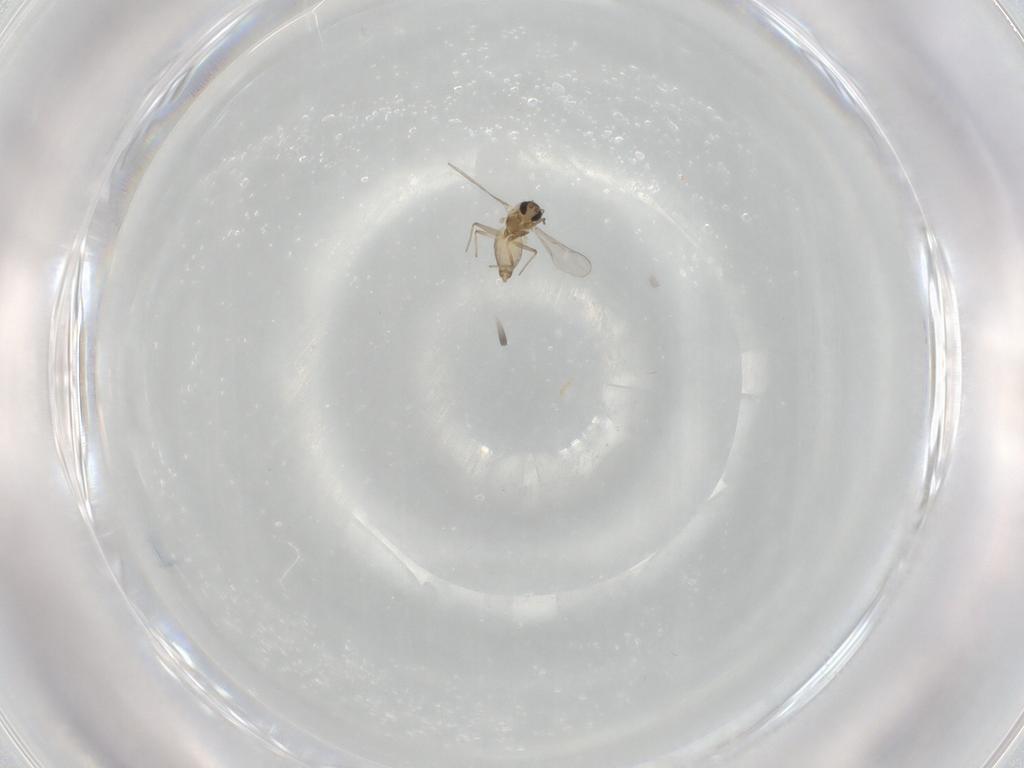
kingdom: Animalia
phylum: Arthropoda
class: Insecta
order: Diptera
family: Chironomidae
